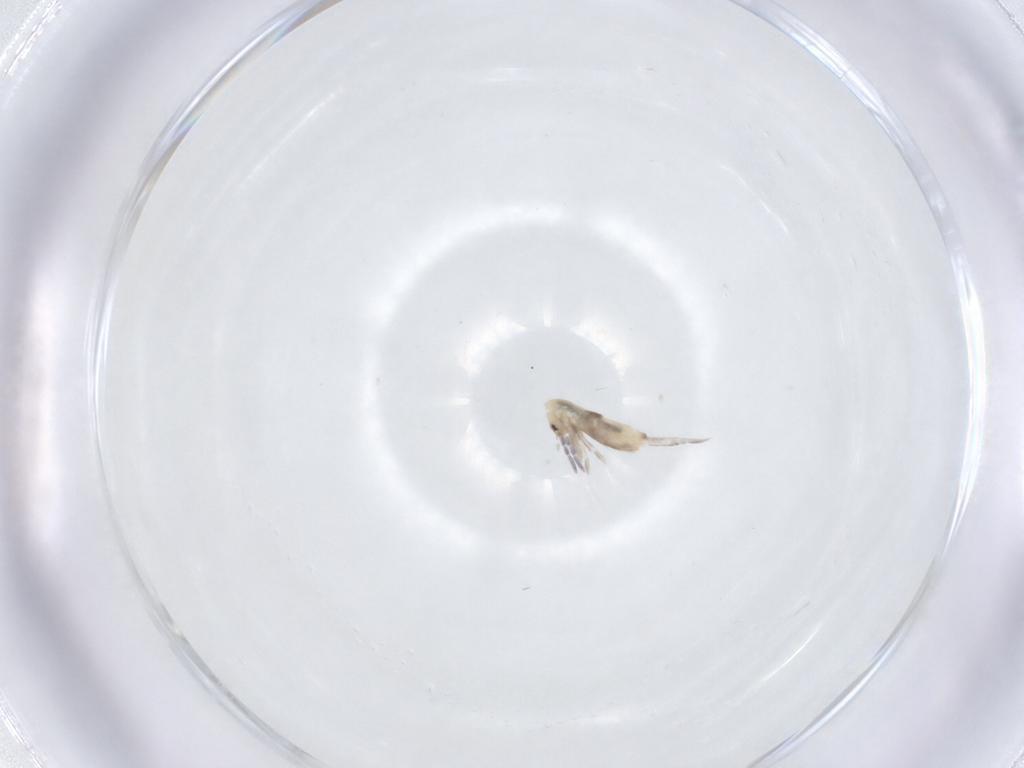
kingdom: Animalia
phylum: Arthropoda
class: Collembola
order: Entomobryomorpha
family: Entomobryidae
